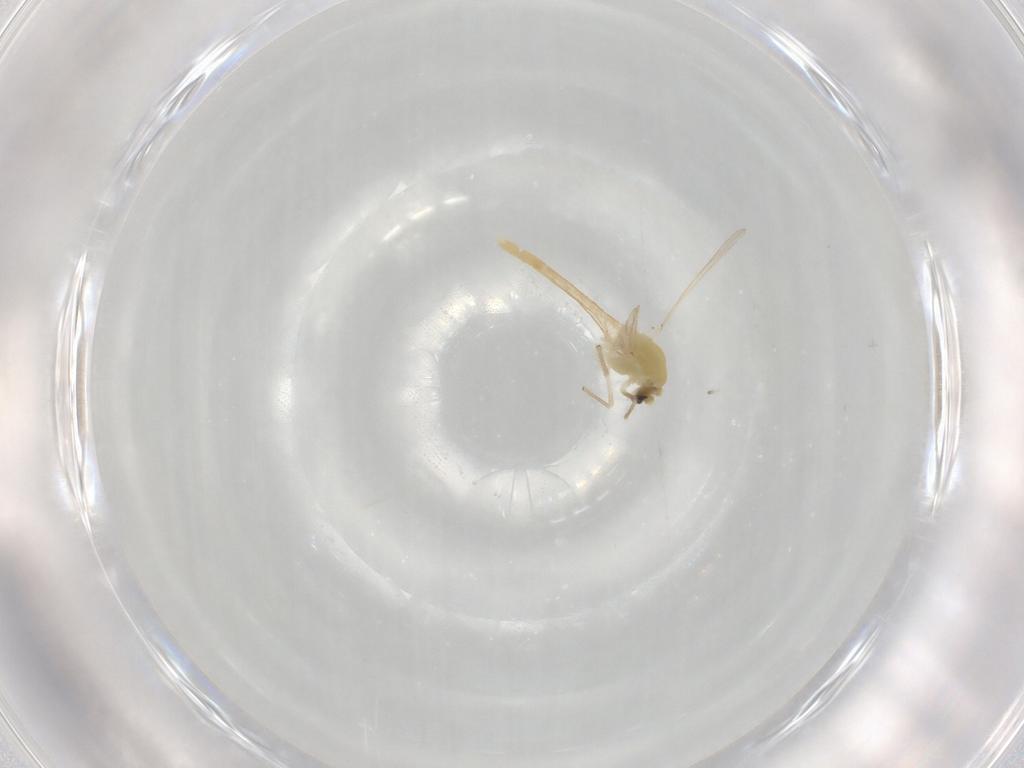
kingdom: Animalia
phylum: Arthropoda
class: Insecta
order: Diptera
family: Chironomidae
